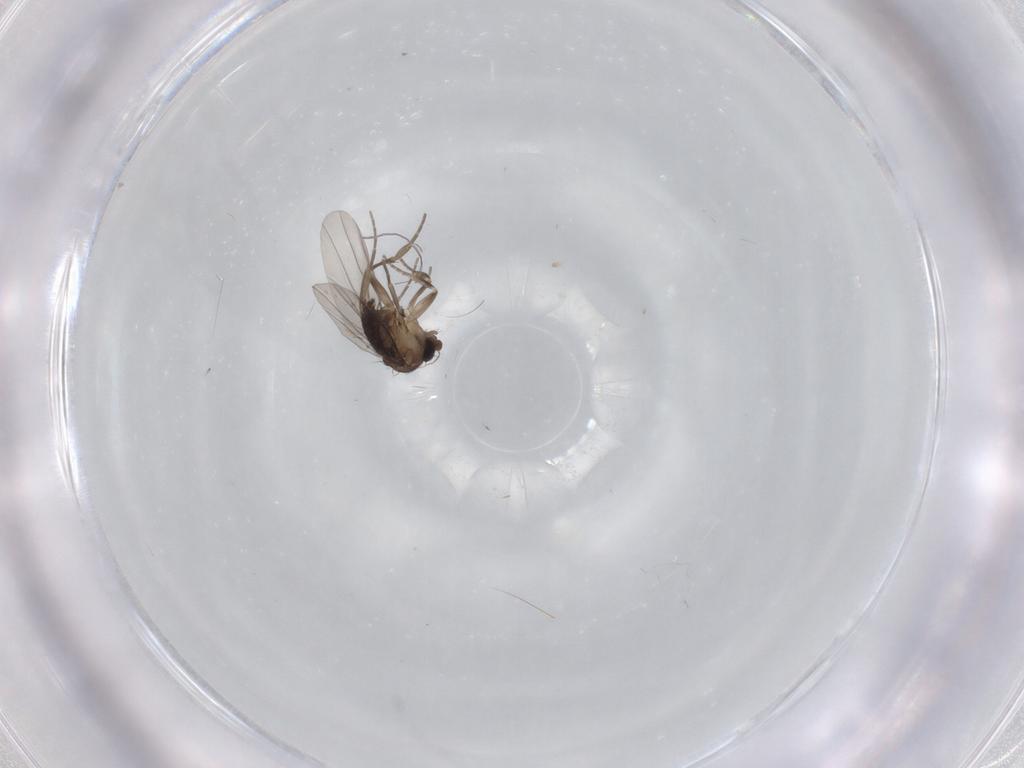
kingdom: Animalia
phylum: Arthropoda
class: Insecta
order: Diptera
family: Phoridae
